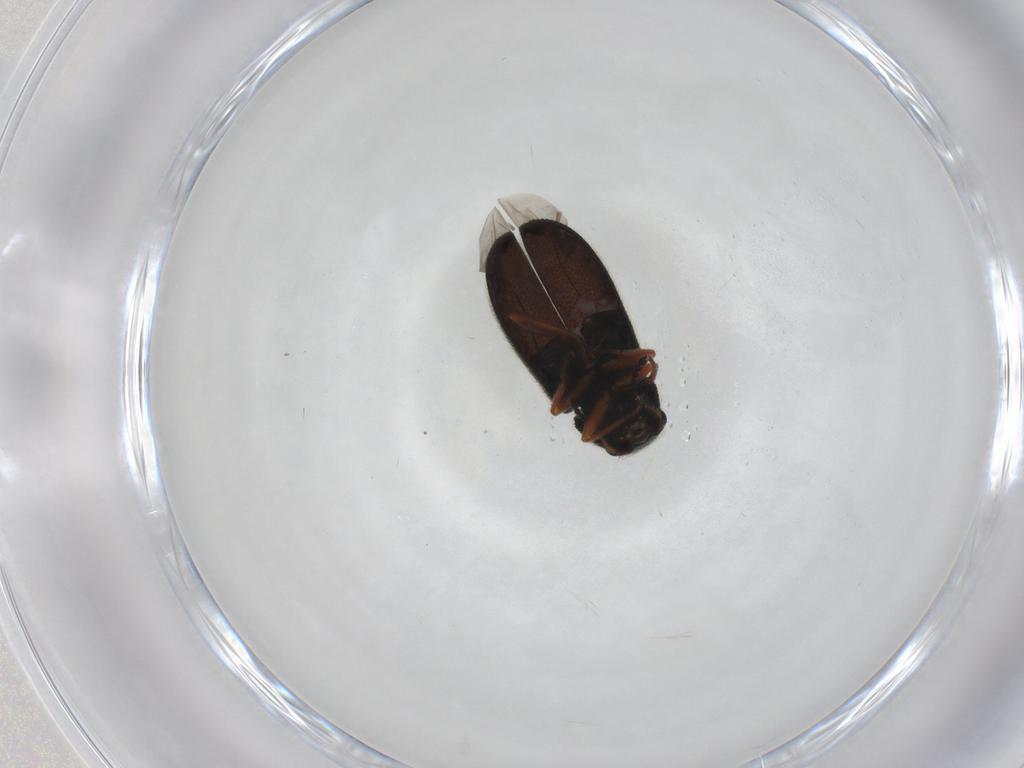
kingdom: Animalia
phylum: Arthropoda
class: Insecta
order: Coleoptera
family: Melyridae
